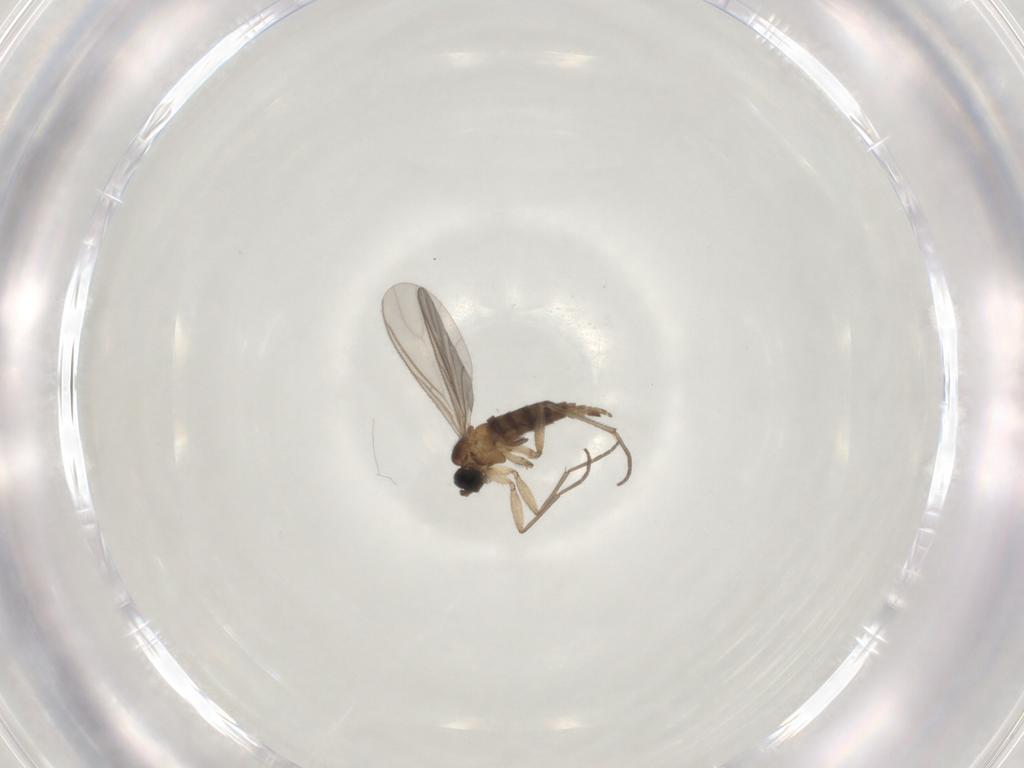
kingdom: Animalia
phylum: Arthropoda
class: Insecta
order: Diptera
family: Sciaridae
